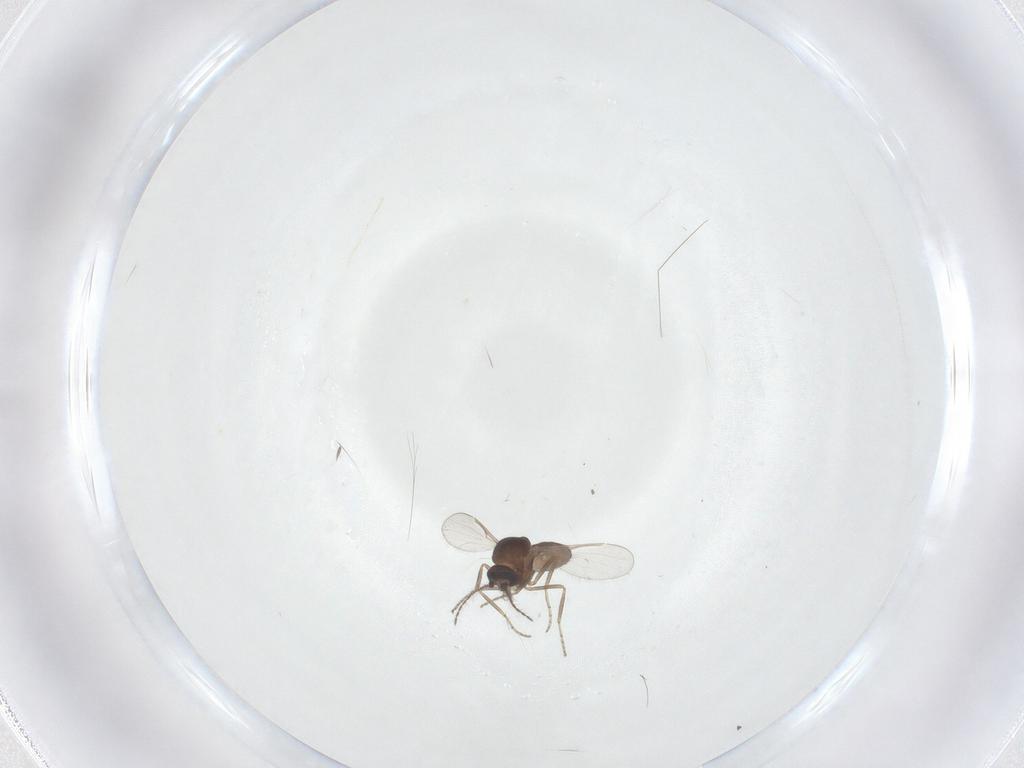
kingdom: Animalia
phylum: Arthropoda
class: Insecta
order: Diptera
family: Ceratopogonidae
